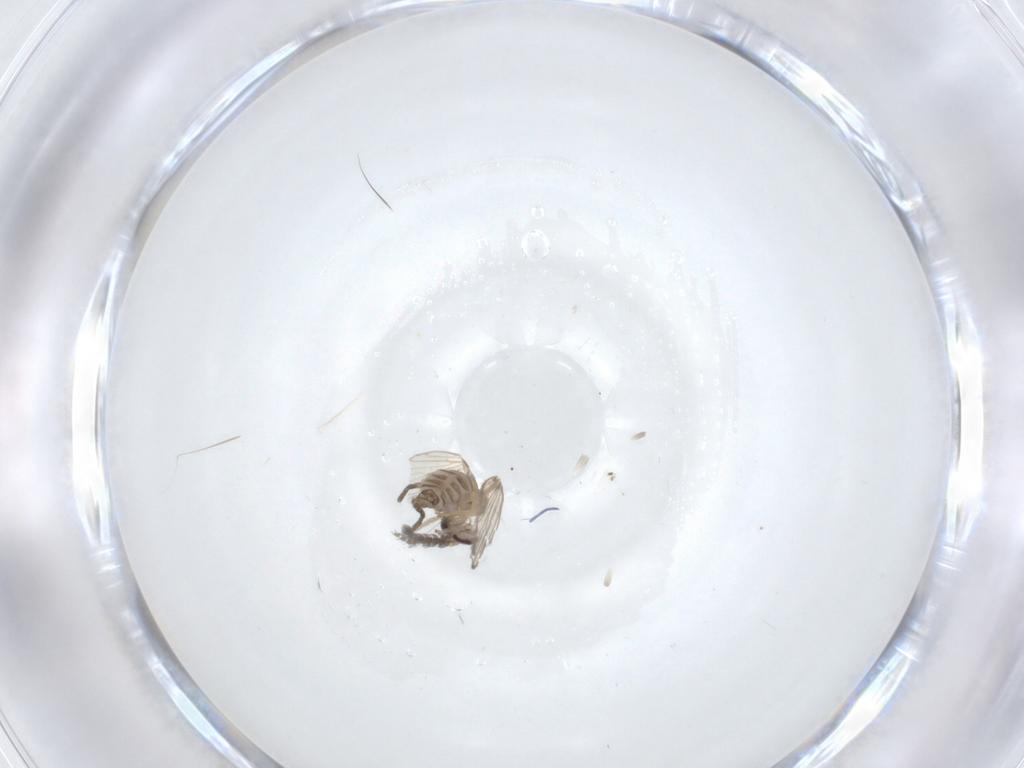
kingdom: Animalia
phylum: Arthropoda
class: Insecta
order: Diptera
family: Psychodidae
